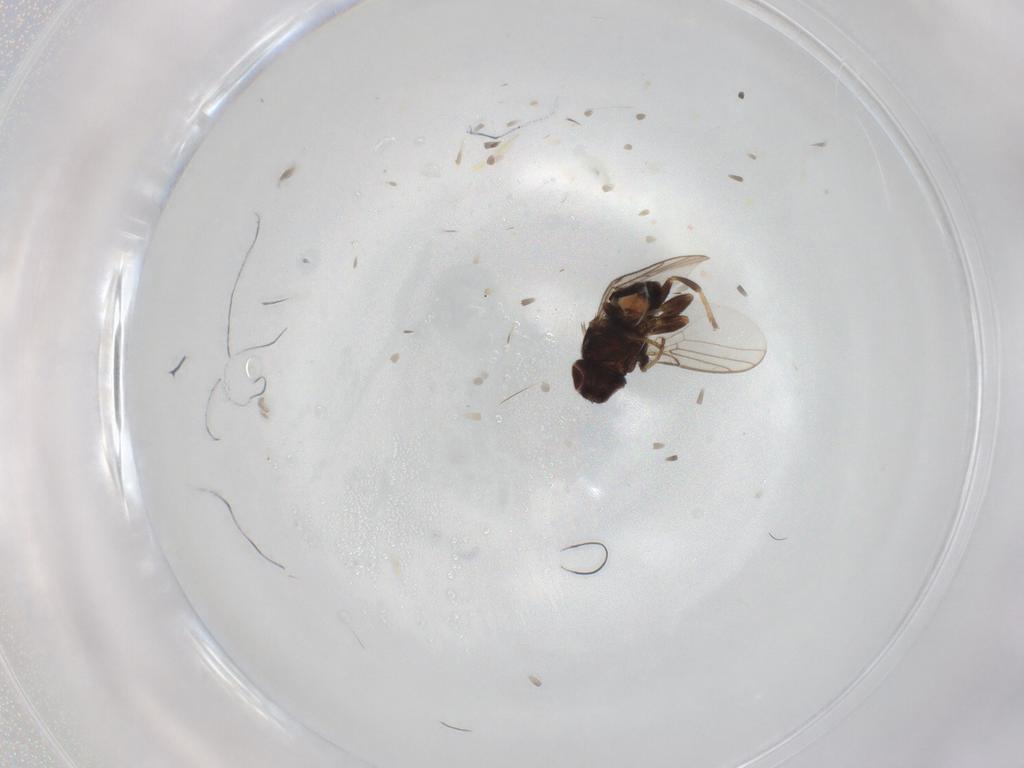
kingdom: Animalia
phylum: Arthropoda
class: Insecta
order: Diptera
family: Chloropidae
